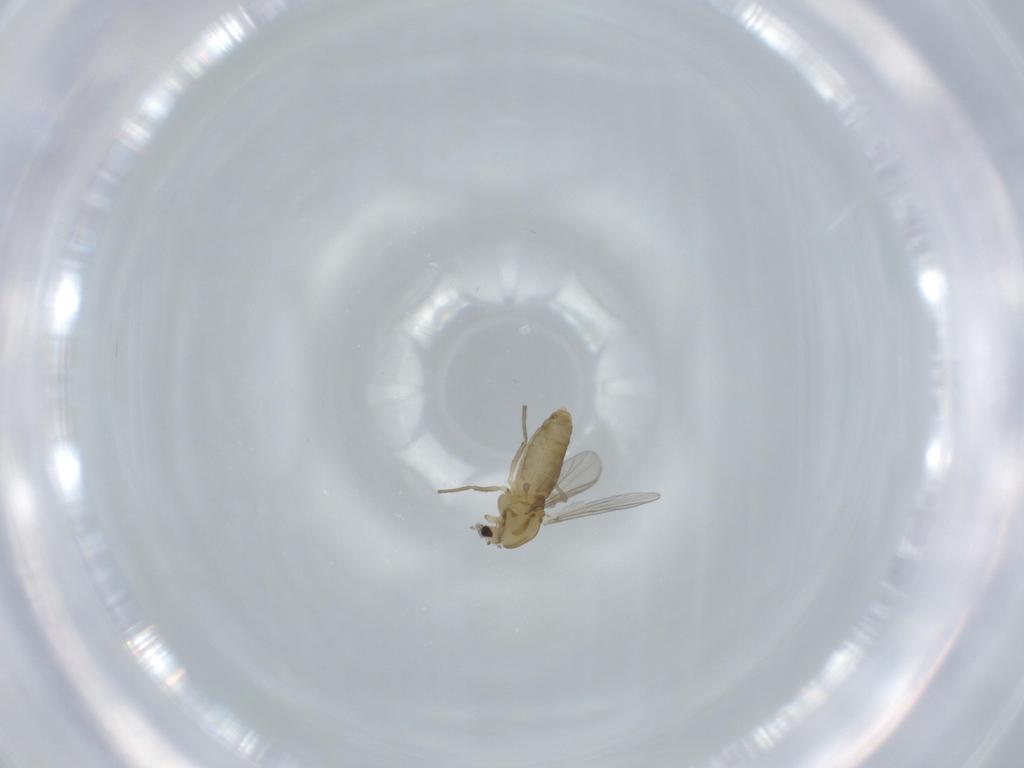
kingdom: Animalia
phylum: Arthropoda
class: Insecta
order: Diptera
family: Chironomidae
